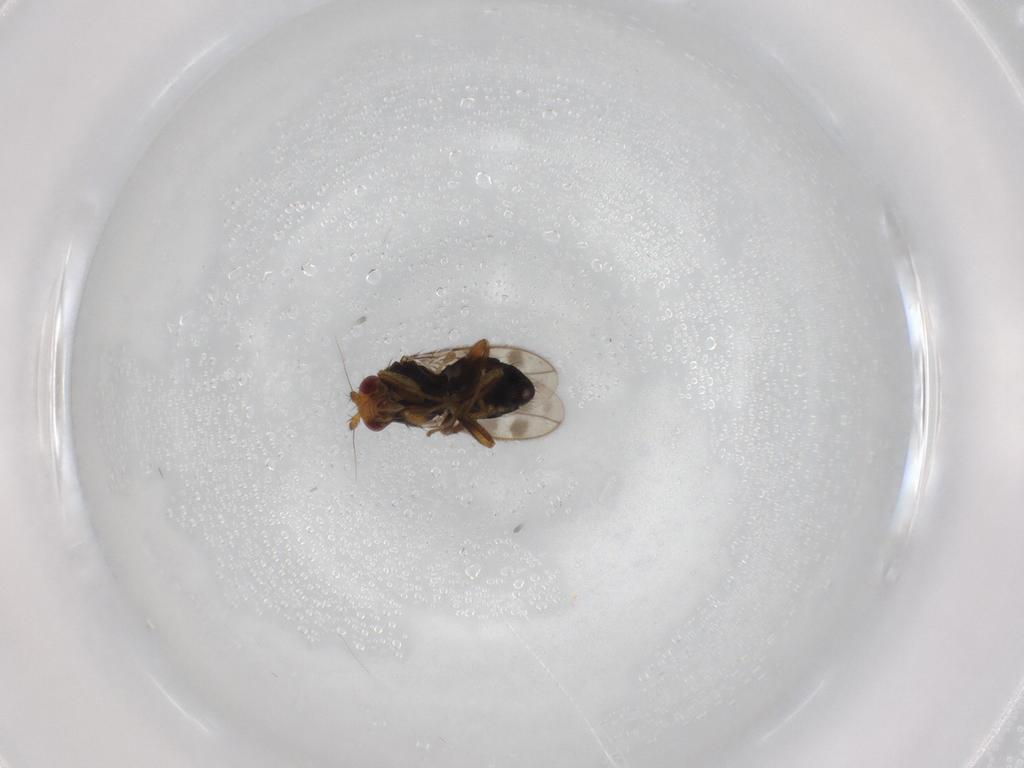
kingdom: Animalia
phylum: Arthropoda
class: Insecta
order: Diptera
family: Sphaeroceridae
